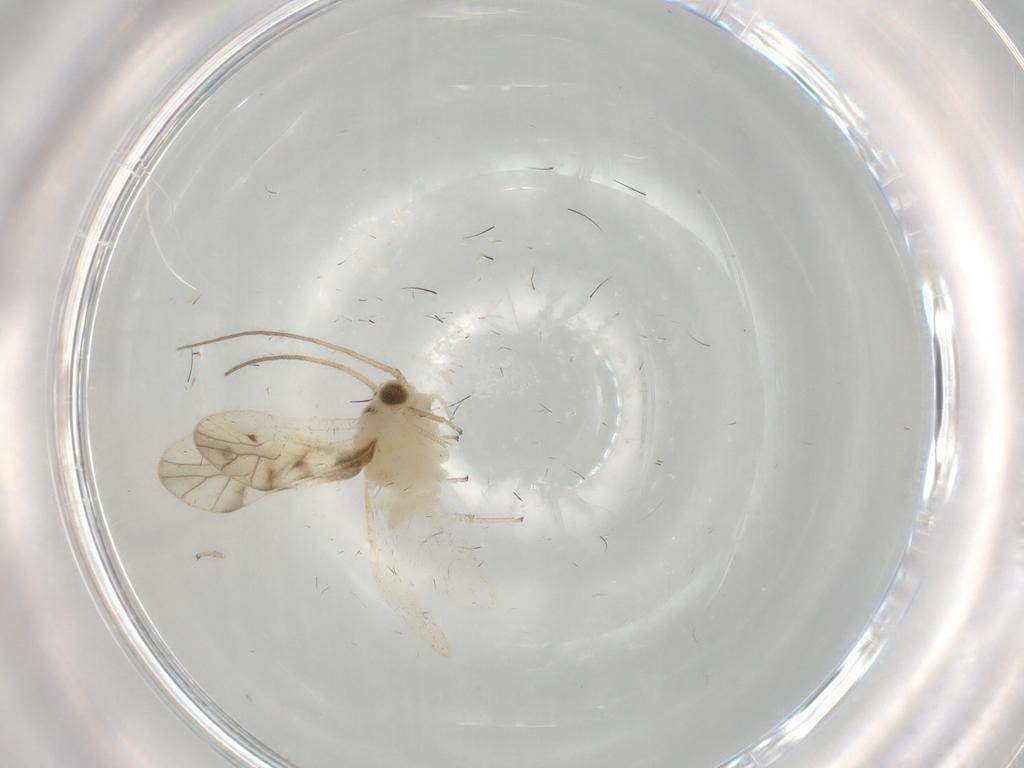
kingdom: Animalia
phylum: Arthropoda
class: Insecta
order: Psocodea
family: Caeciliusidae
